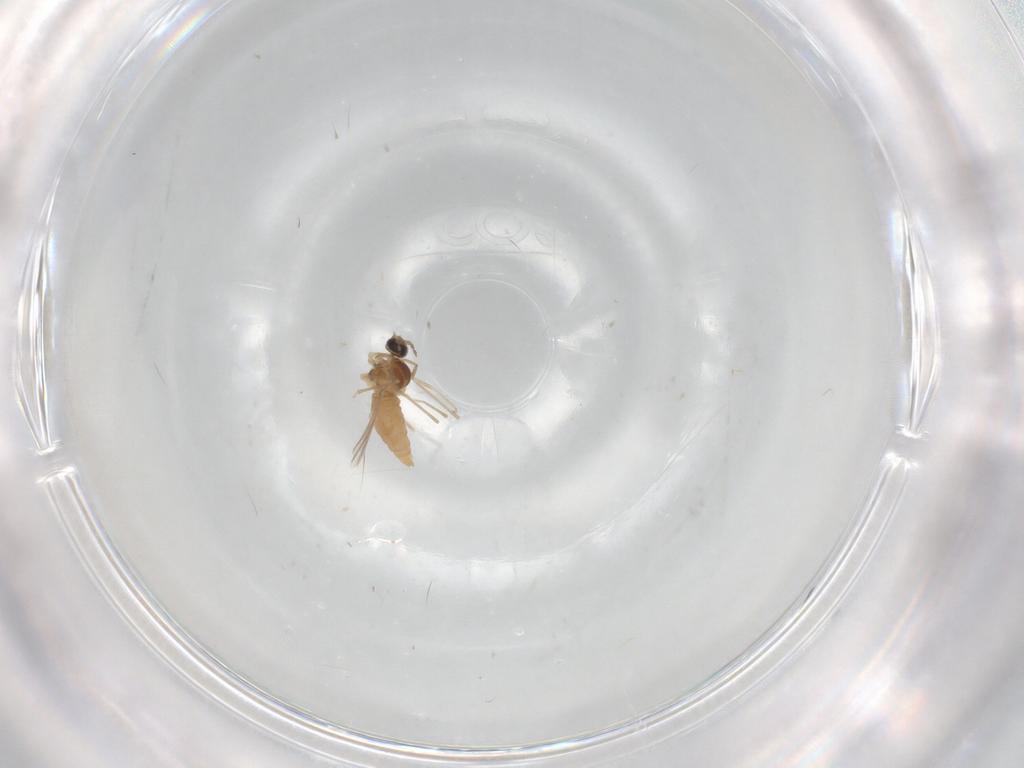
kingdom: Animalia
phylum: Arthropoda
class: Insecta
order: Diptera
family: Cecidomyiidae
